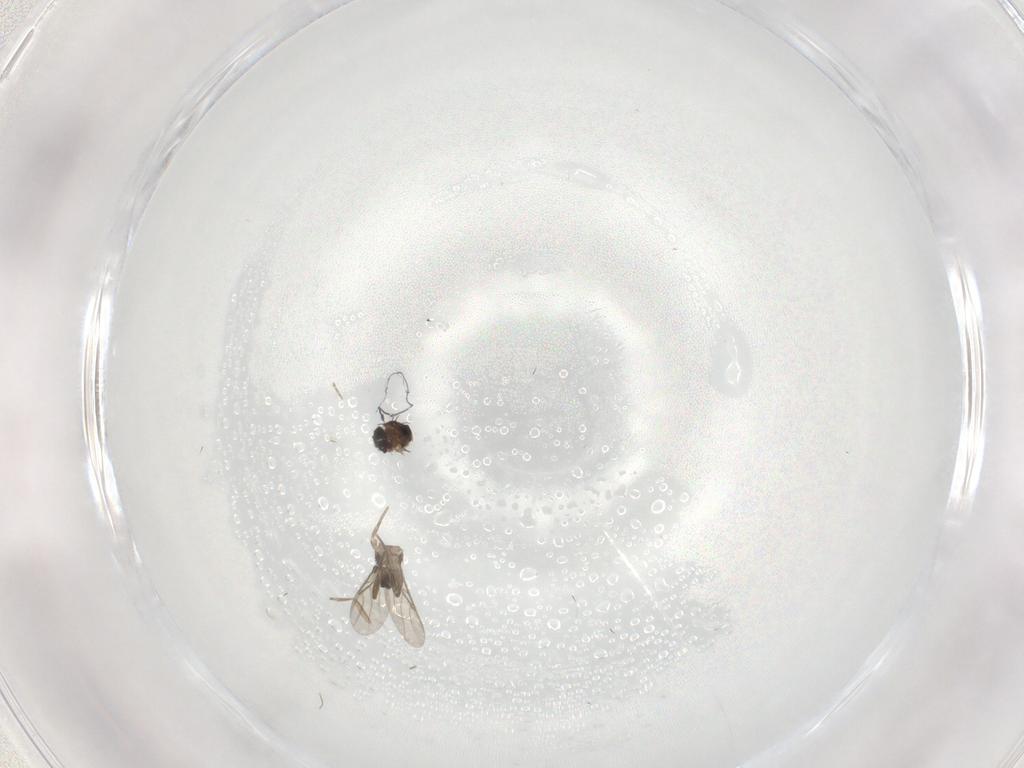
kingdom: Animalia
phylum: Arthropoda
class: Insecta
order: Diptera
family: Phoridae
